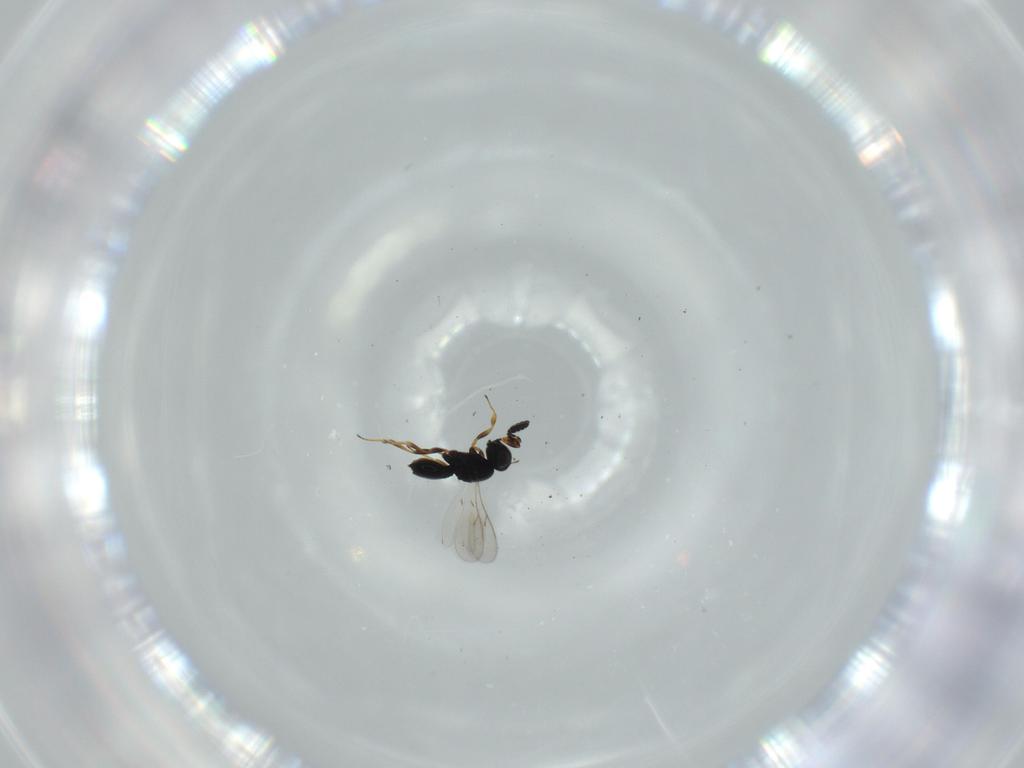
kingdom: Animalia
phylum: Arthropoda
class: Insecta
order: Hymenoptera
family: Scelionidae
